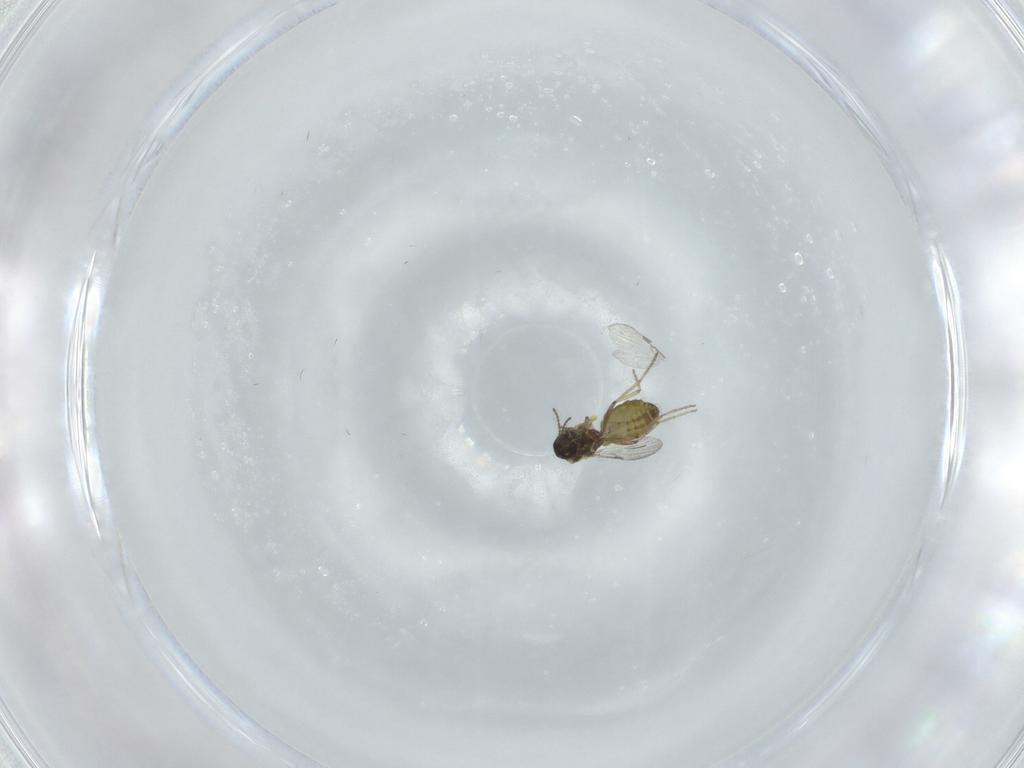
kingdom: Animalia
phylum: Arthropoda
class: Insecta
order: Diptera
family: Ceratopogonidae
